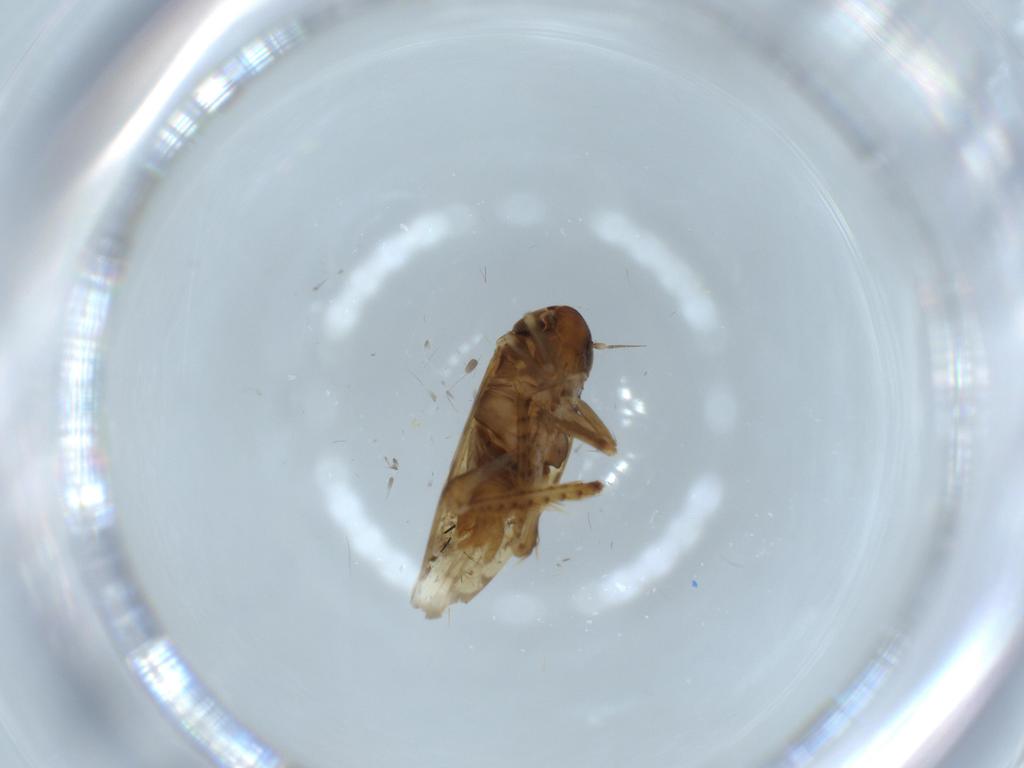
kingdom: Animalia
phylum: Arthropoda
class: Insecta
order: Hemiptera
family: Cicadellidae
